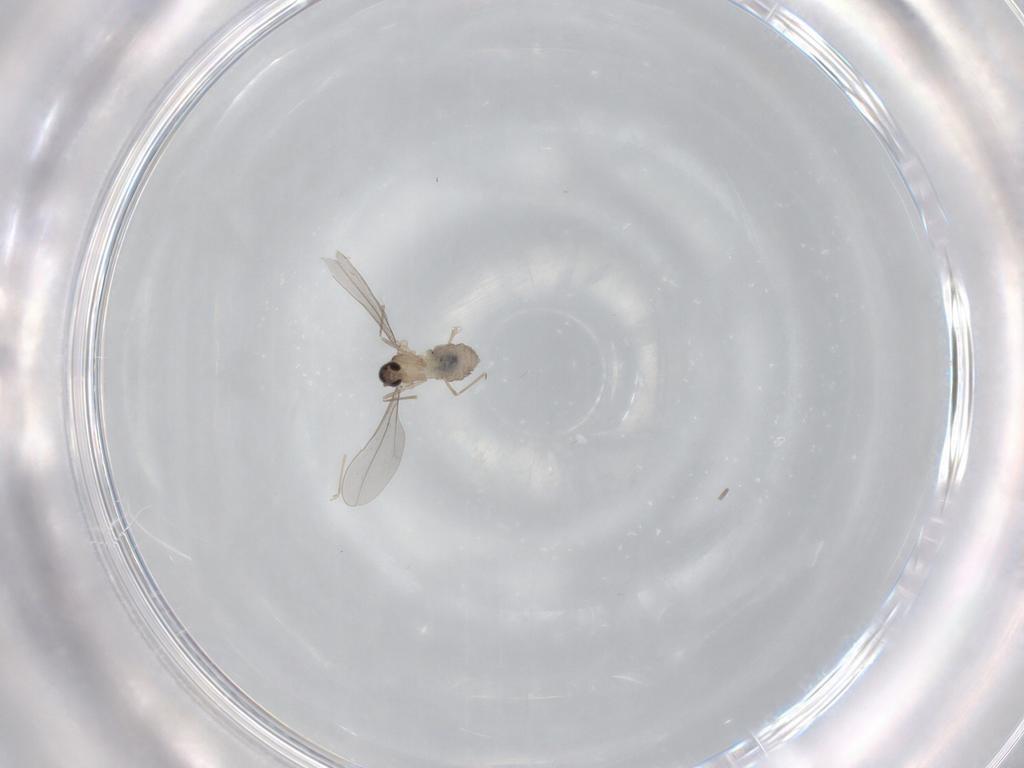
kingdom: Animalia
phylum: Arthropoda
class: Insecta
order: Diptera
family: Cecidomyiidae
